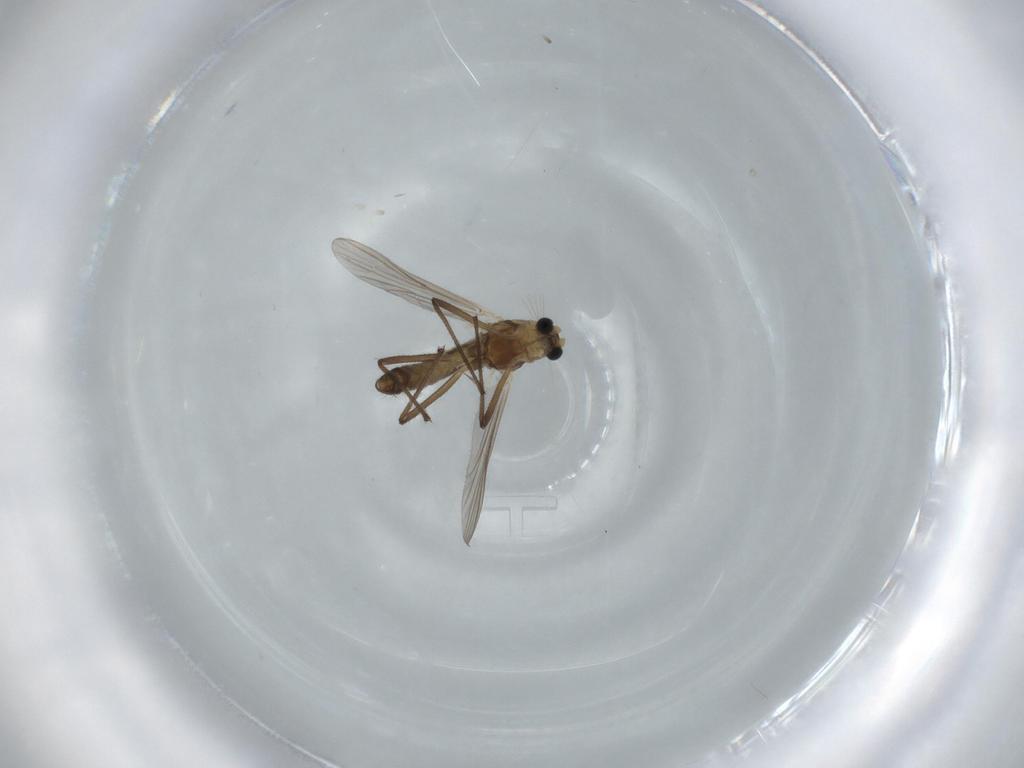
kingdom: Animalia
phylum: Arthropoda
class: Insecta
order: Diptera
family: Chironomidae
